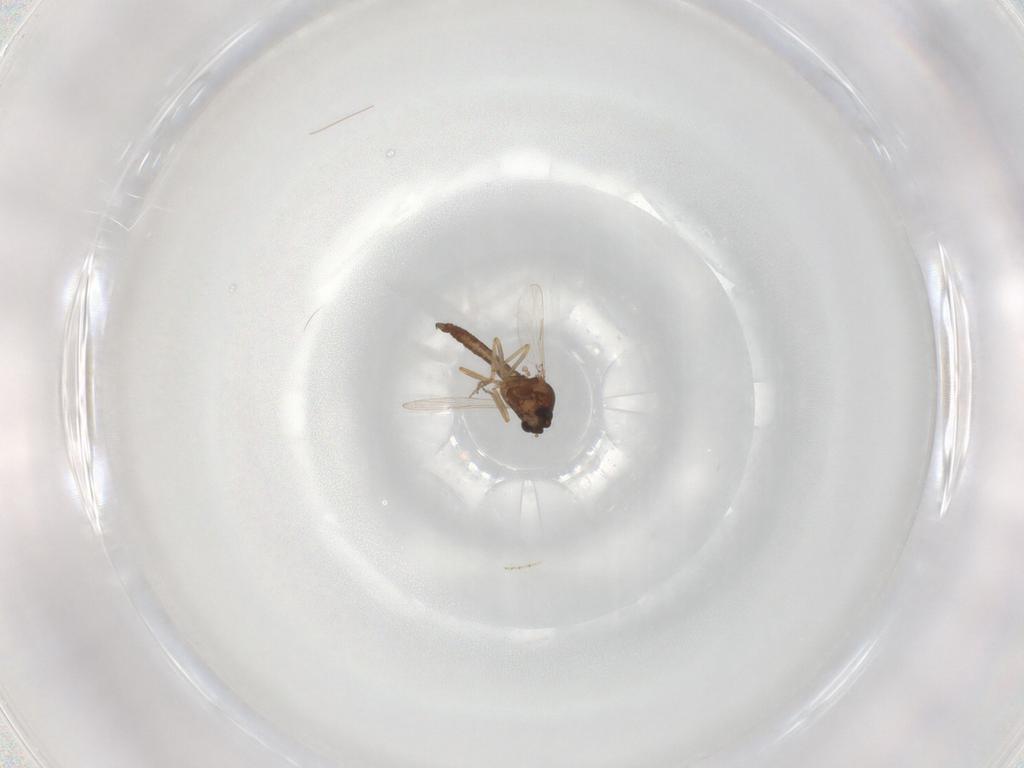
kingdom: Animalia
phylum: Arthropoda
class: Insecta
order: Diptera
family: Ceratopogonidae
